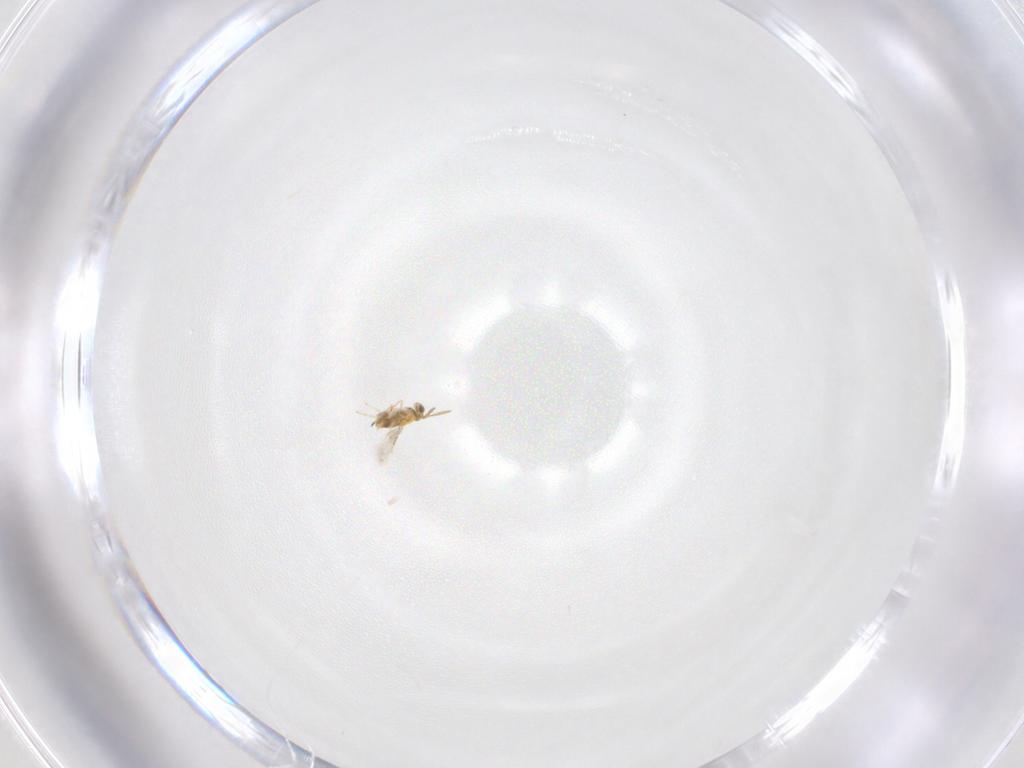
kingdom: Animalia
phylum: Arthropoda
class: Insecta
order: Hymenoptera
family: Aphelinidae
